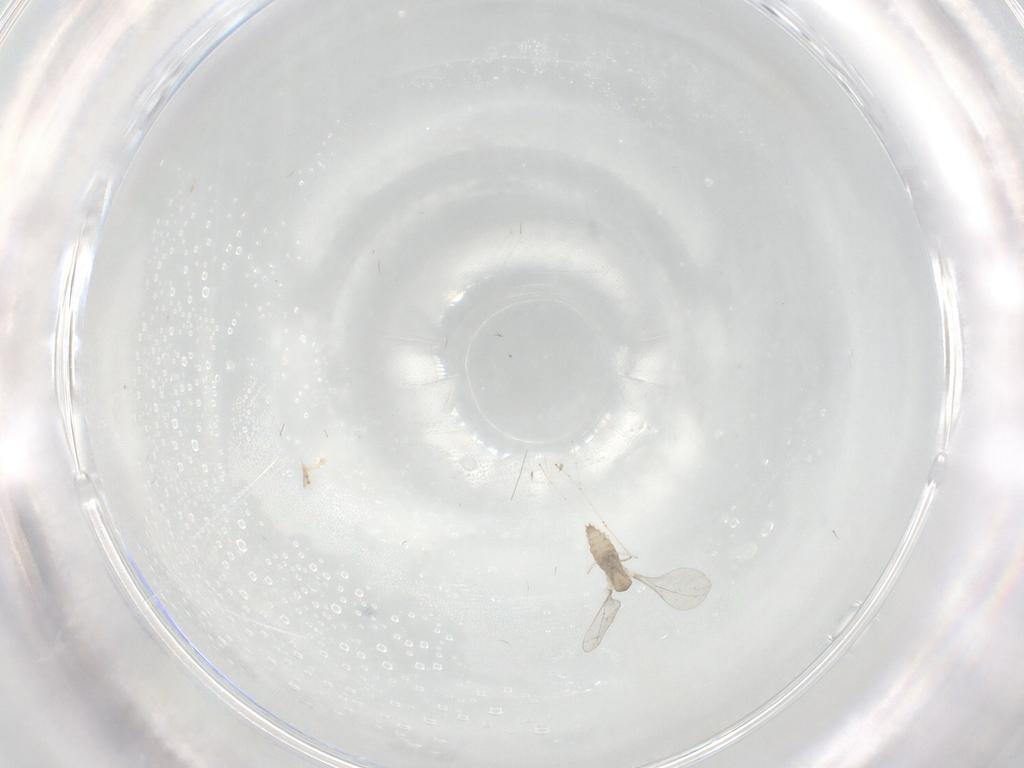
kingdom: Animalia
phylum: Arthropoda
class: Insecta
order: Diptera
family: Cecidomyiidae
